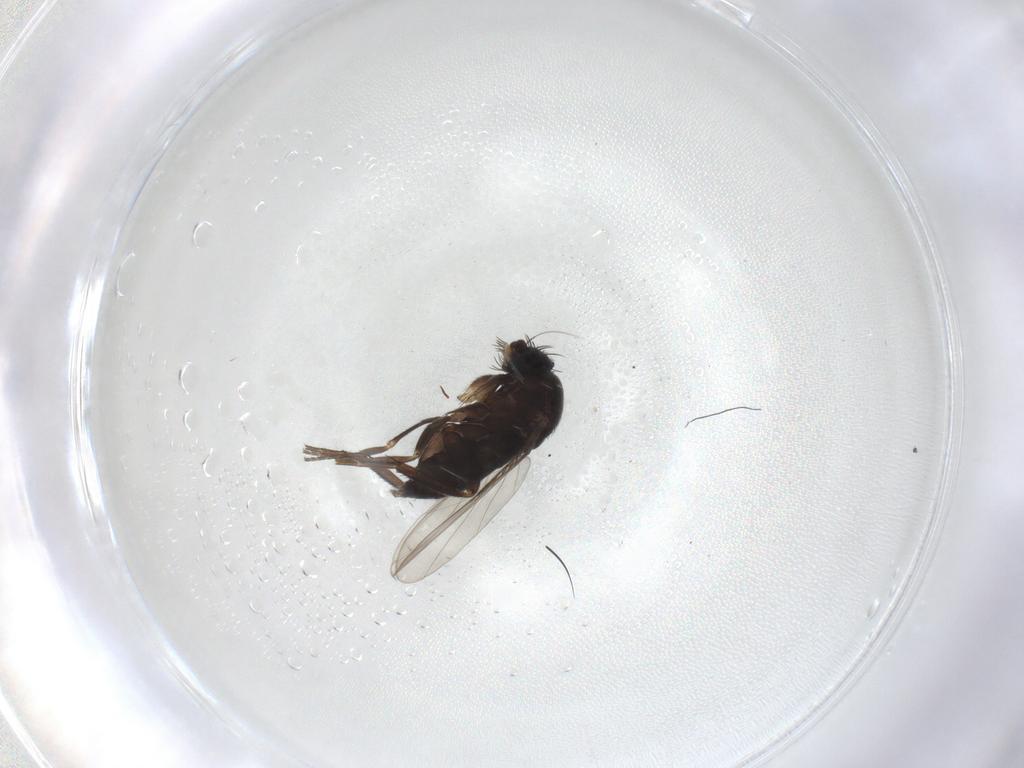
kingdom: Animalia
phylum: Arthropoda
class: Insecta
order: Diptera
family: Phoridae
